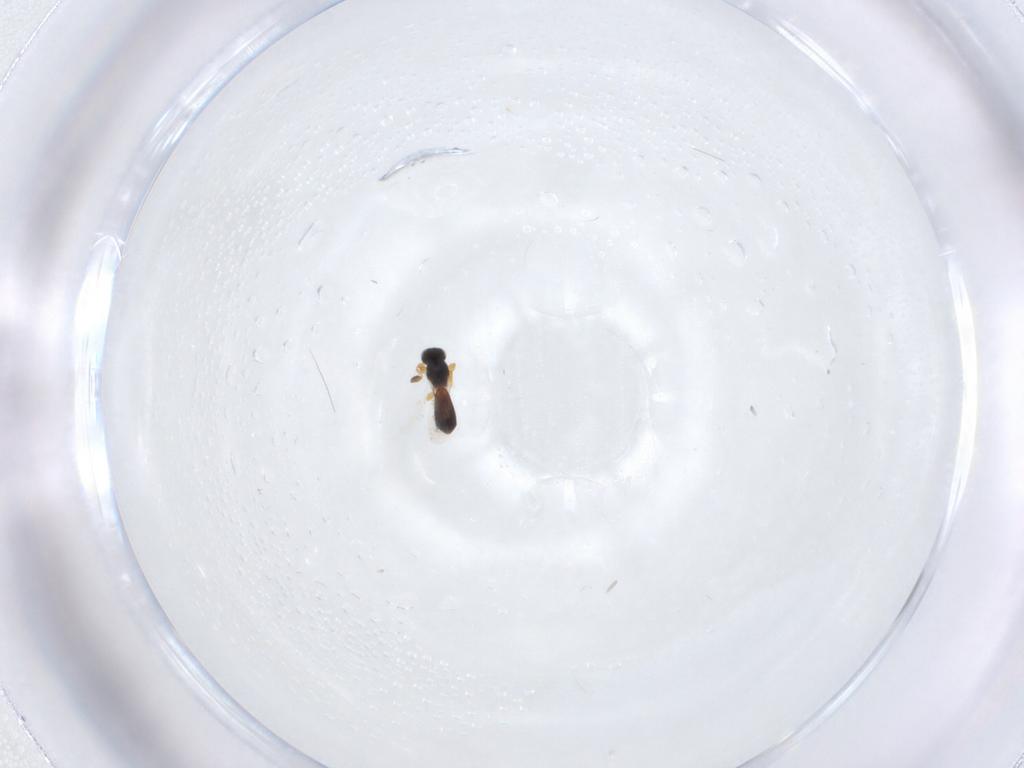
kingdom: Animalia
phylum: Arthropoda
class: Insecta
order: Hymenoptera
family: Platygastridae
